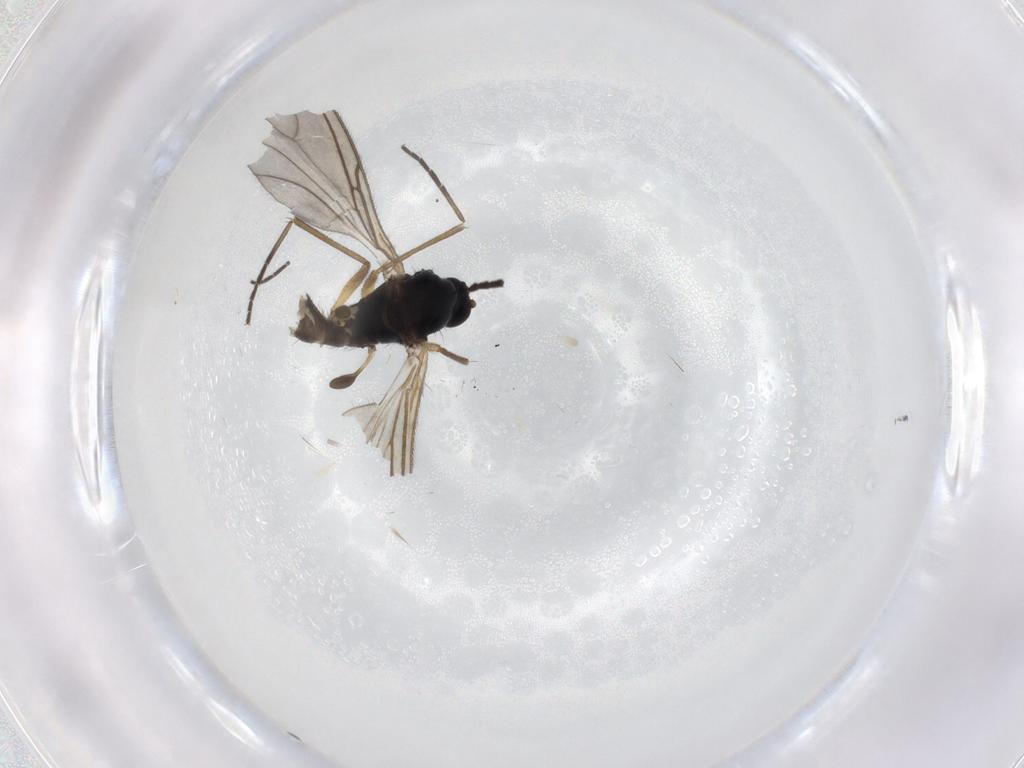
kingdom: Animalia
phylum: Arthropoda
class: Insecta
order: Diptera
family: Sciaridae
